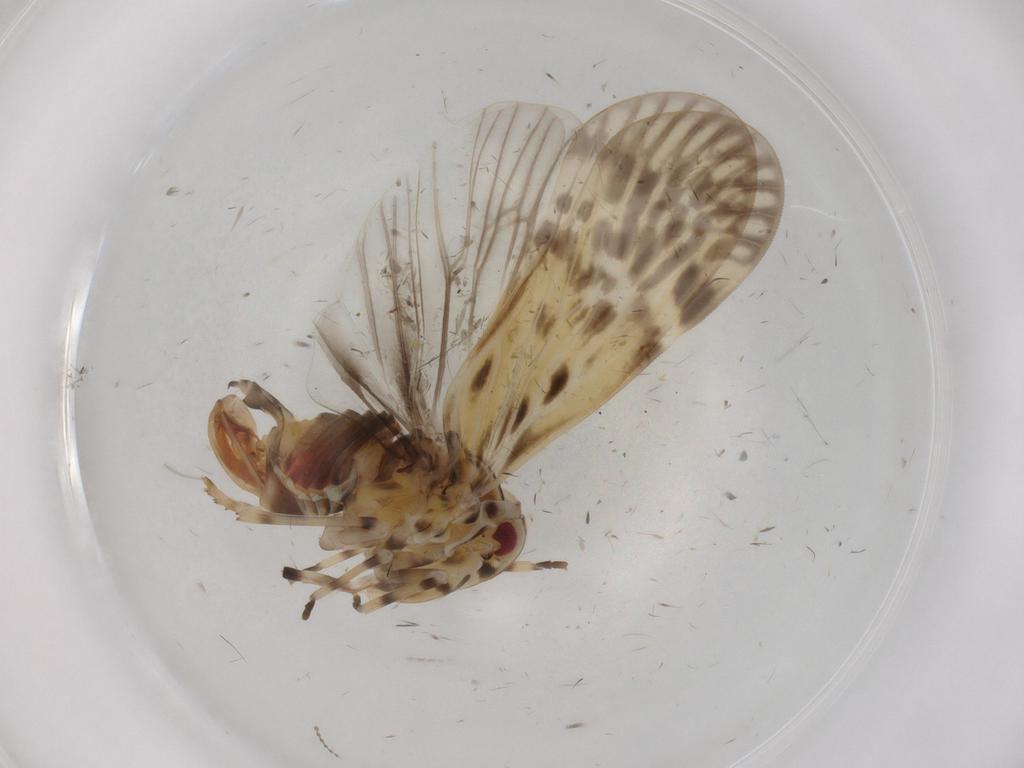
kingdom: Animalia
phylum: Arthropoda
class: Insecta
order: Hemiptera
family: Derbidae
